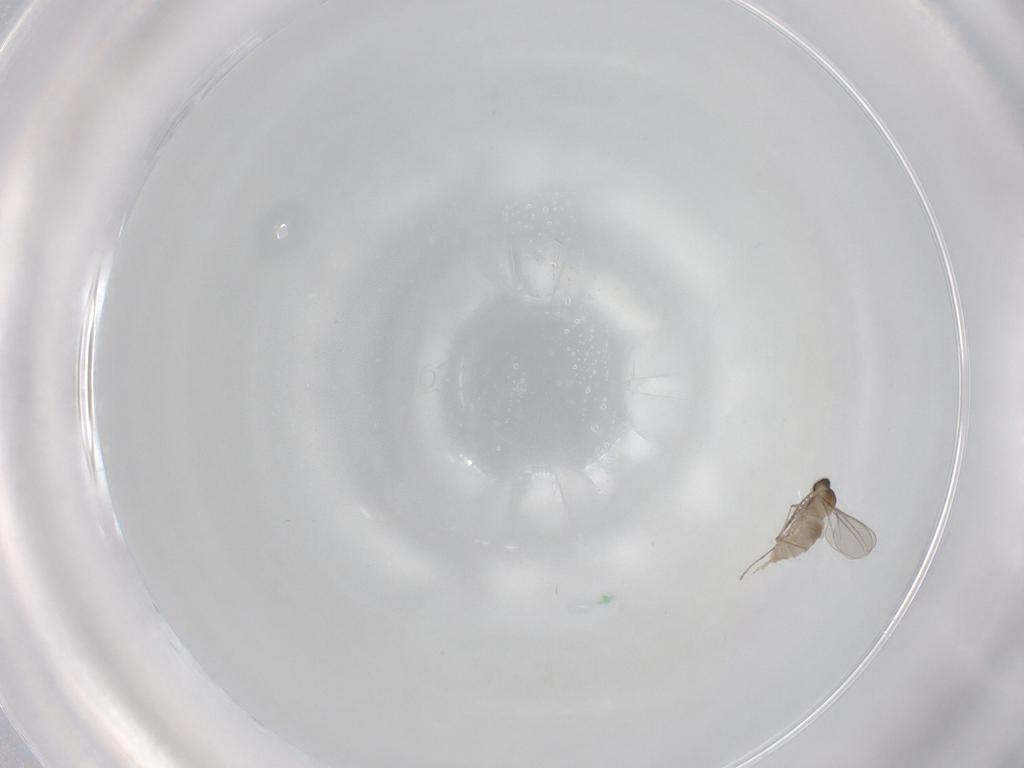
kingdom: Animalia
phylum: Arthropoda
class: Insecta
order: Diptera
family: Cecidomyiidae
